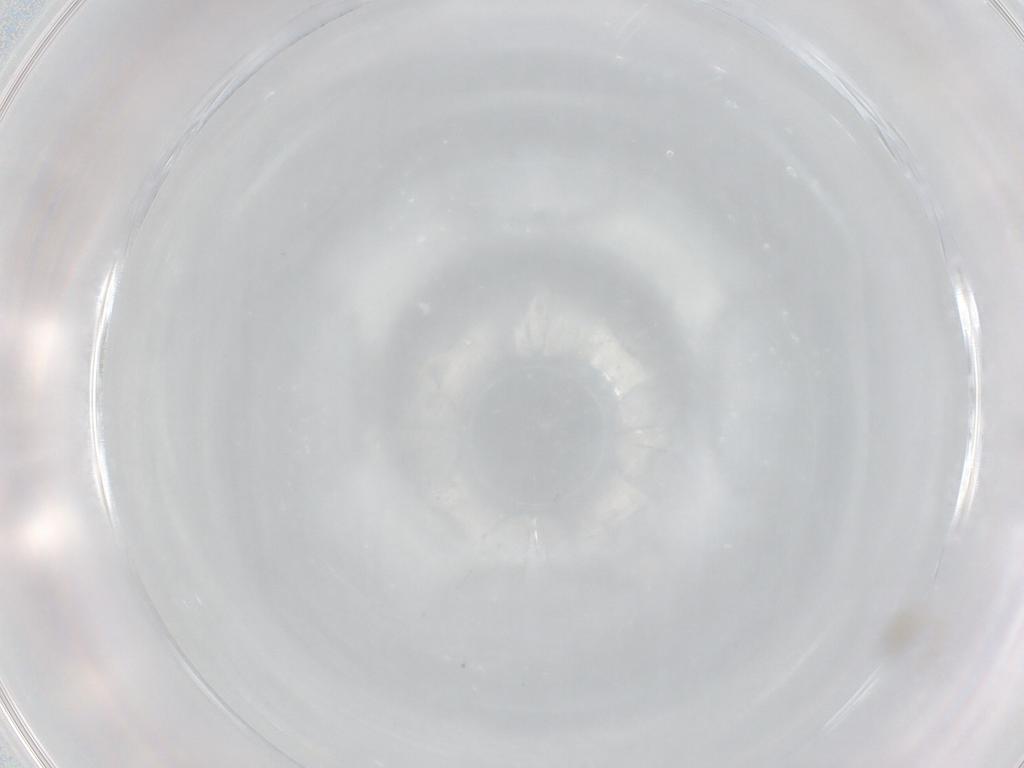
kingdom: Animalia
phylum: Arthropoda
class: Insecta
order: Diptera
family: Cecidomyiidae
